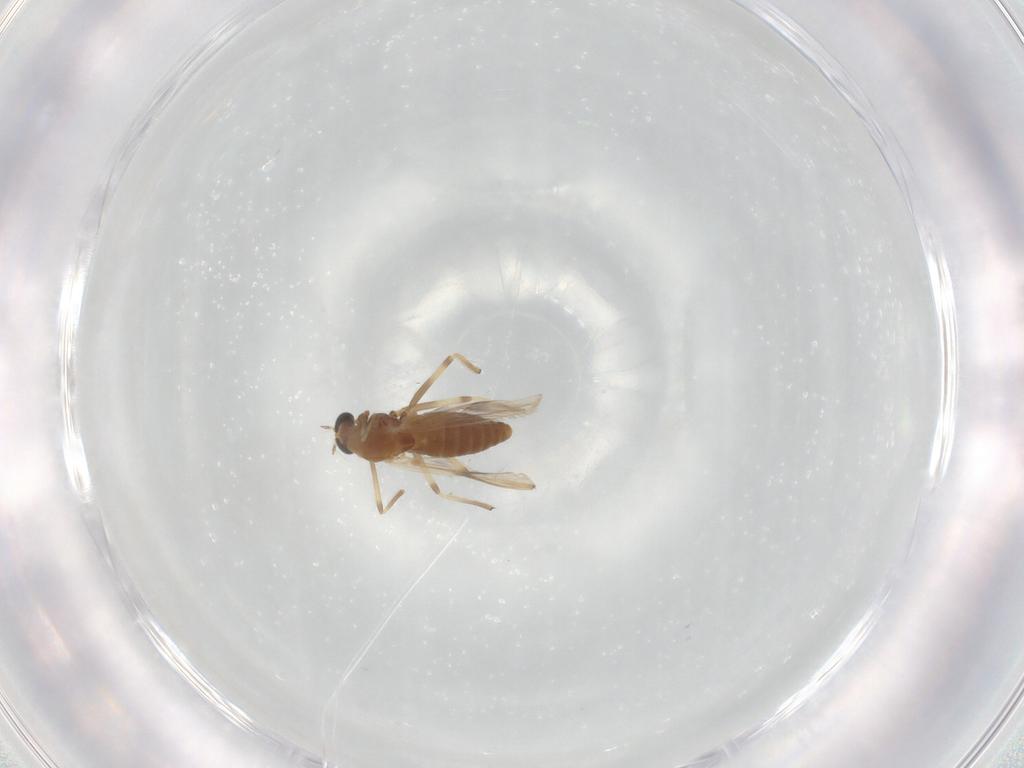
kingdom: Animalia
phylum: Arthropoda
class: Insecta
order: Diptera
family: Chironomidae
